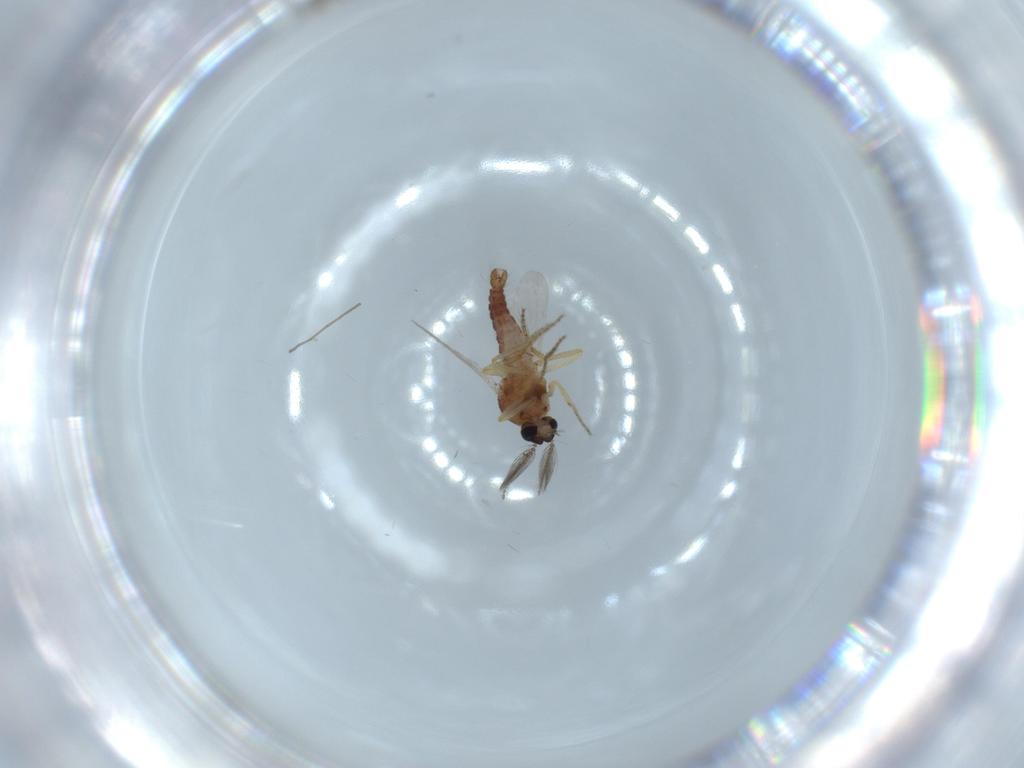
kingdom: Animalia
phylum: Arthropoda
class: Insecta
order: Diptera
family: Ceratopogonidae
